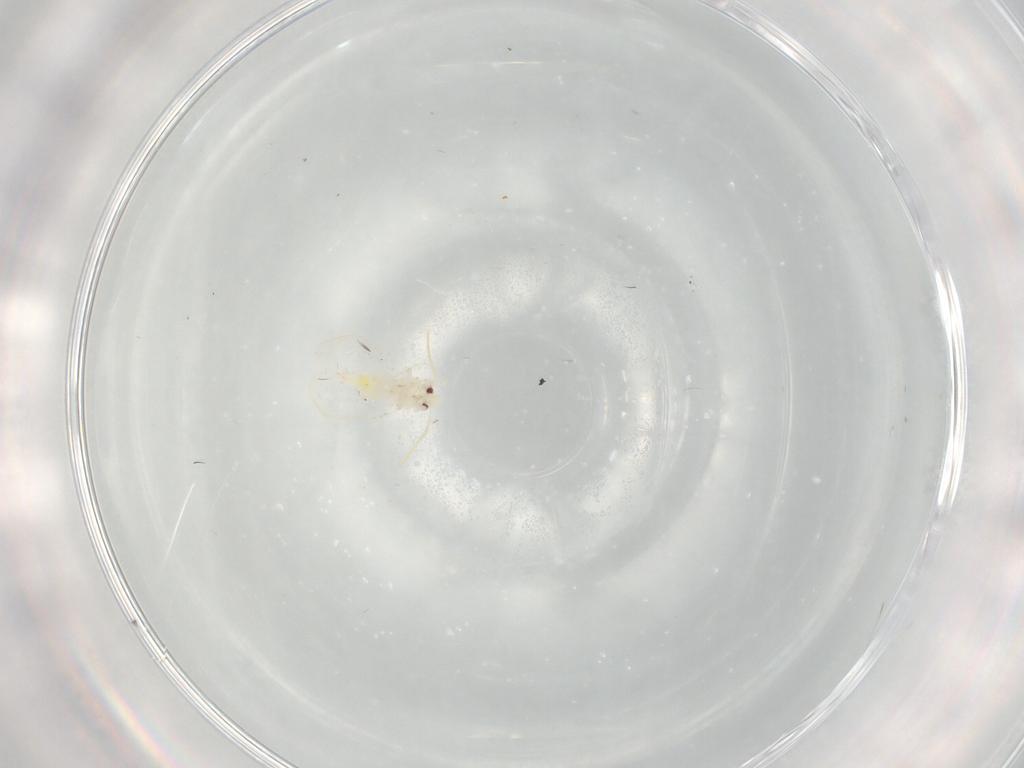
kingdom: Animalia
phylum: Arthropoda
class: Insecta
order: Hemiptera
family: Aleyrodidae
